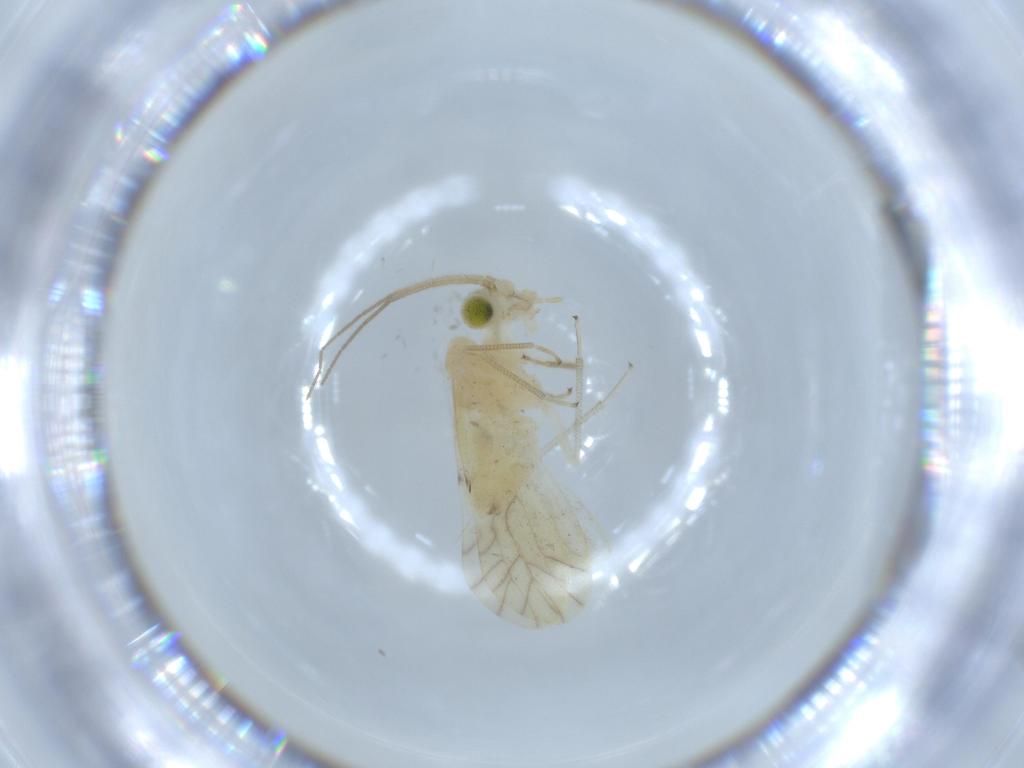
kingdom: Animalia
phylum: Arthropoda
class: Insecta
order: Psocodea
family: Caeciliusidae
